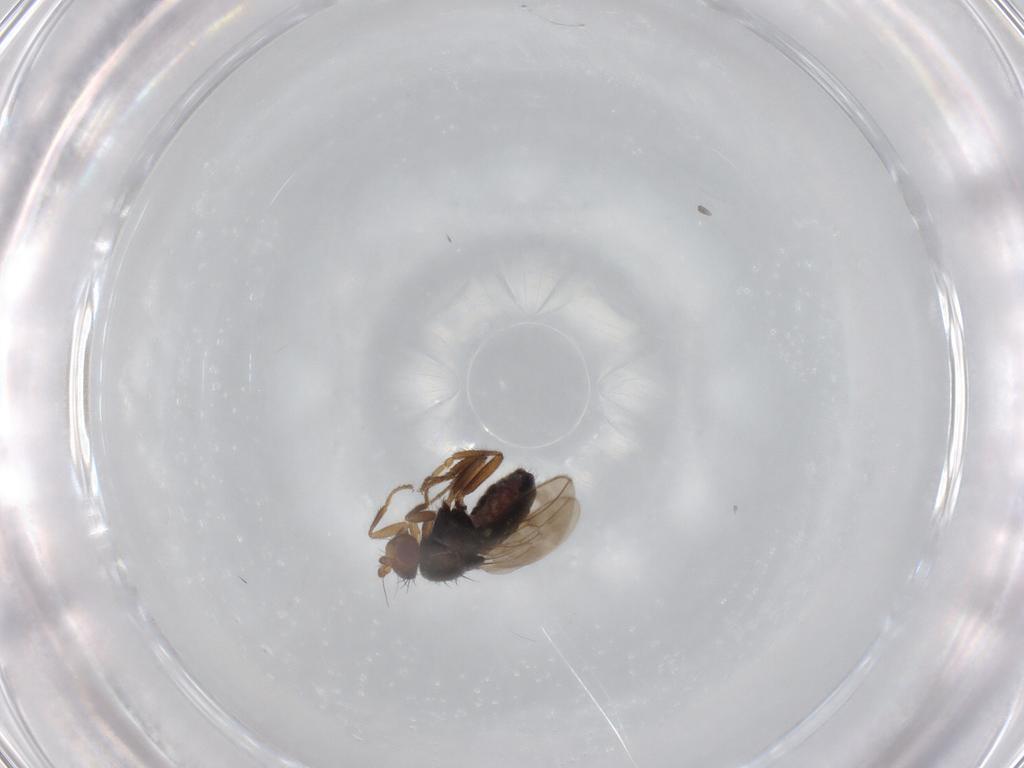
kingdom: Animalia
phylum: Arthropoda
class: Insecta
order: Diptera
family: Sphaeroceridae
